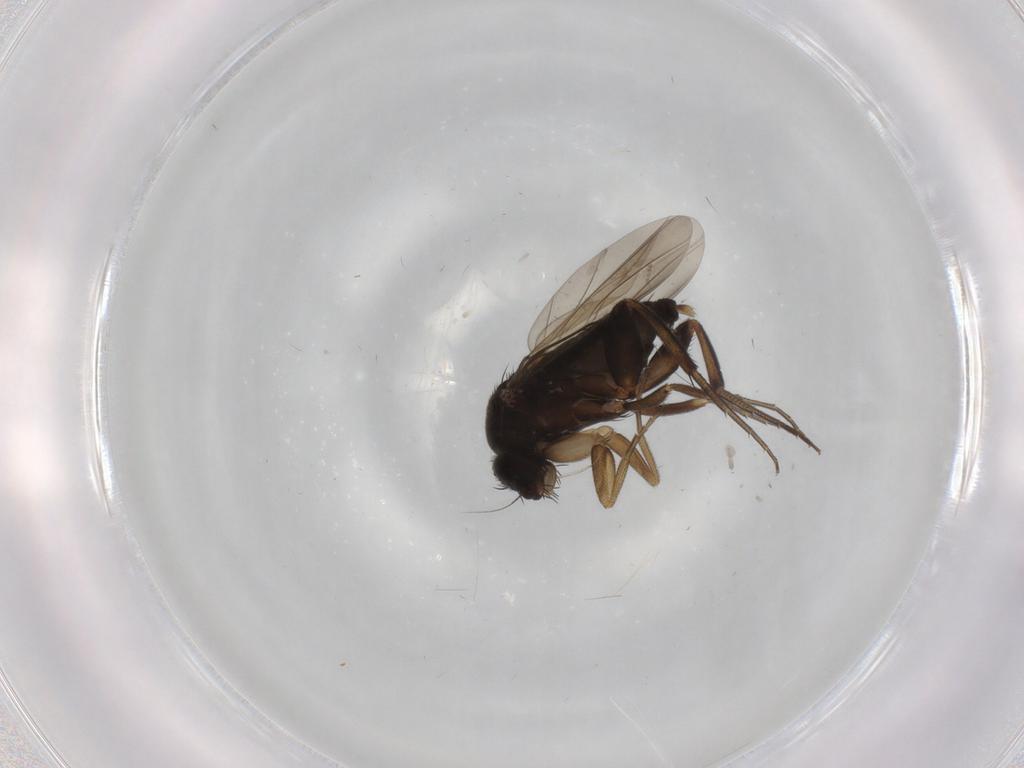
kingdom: Animalia
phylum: Arthropoda
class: Insecta
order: Diptera
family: Phoridae
